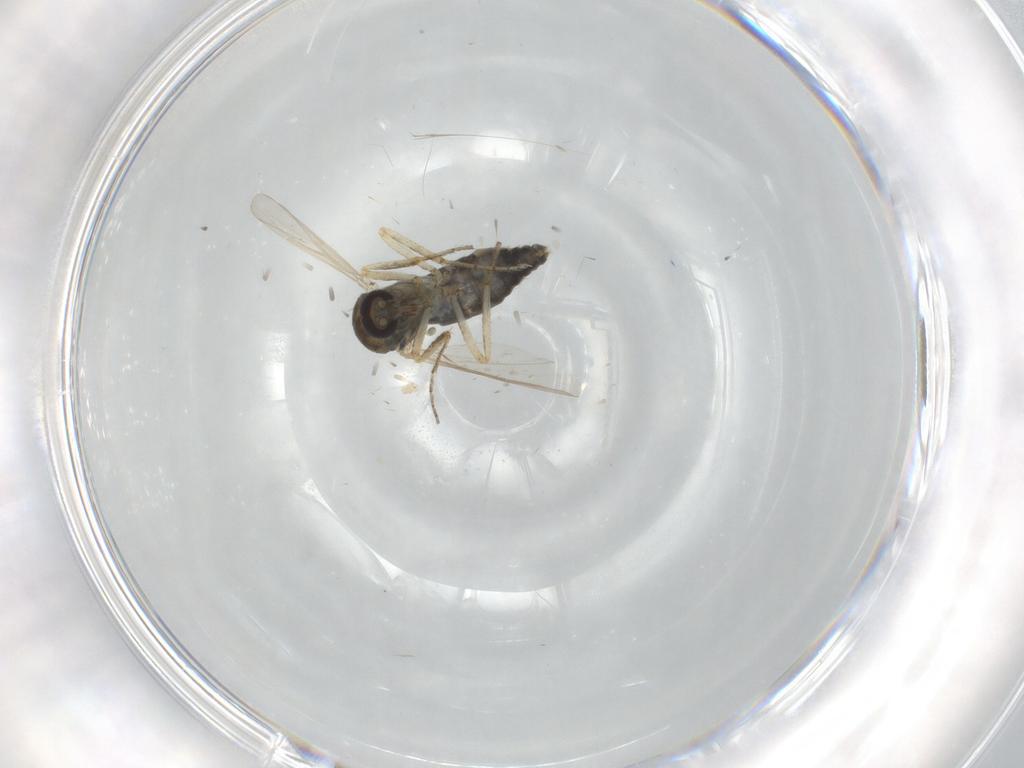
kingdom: Animalia
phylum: Arthropoda
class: Insecta
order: Diptera
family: Ceratopogonidae
